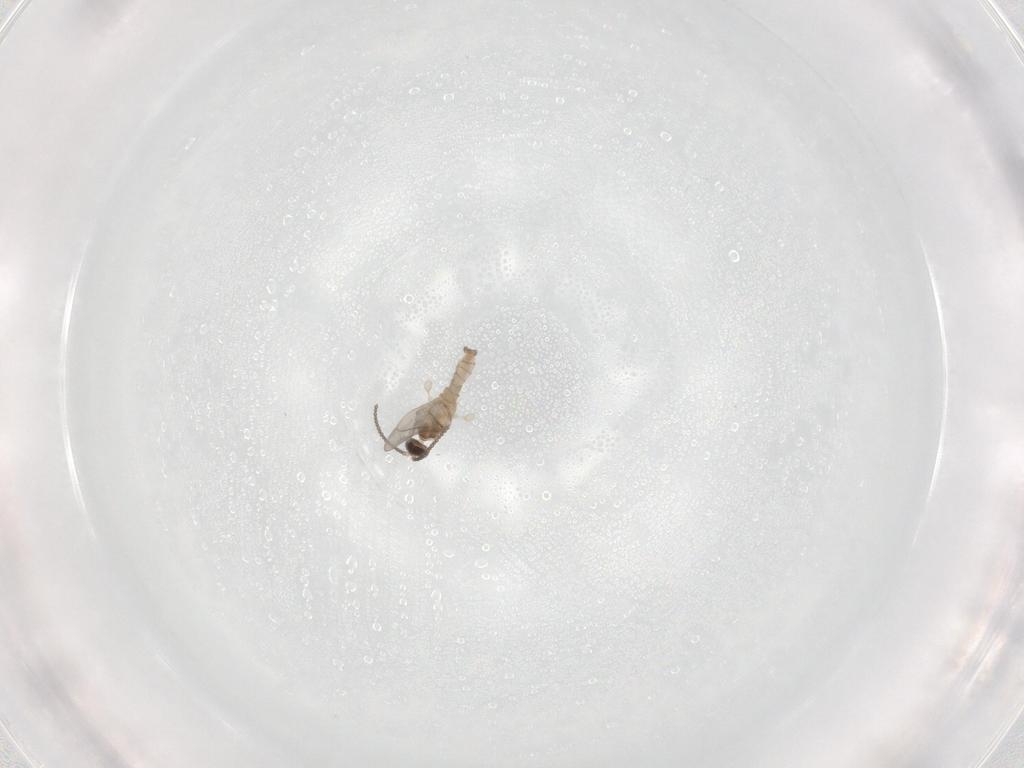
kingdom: Animalia
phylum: Arthropoda
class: Insecta
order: Diptera
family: Cecidomyiidae
